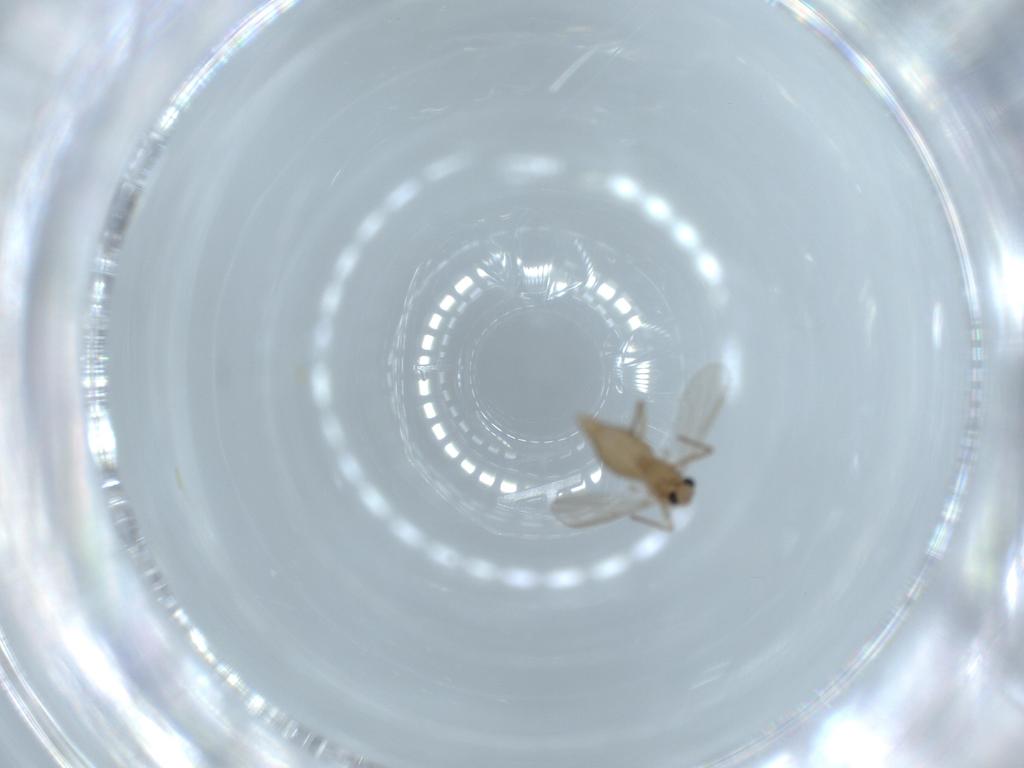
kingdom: Animalia
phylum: Arthropoda
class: Insecta
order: Diptera
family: Chironomidae
